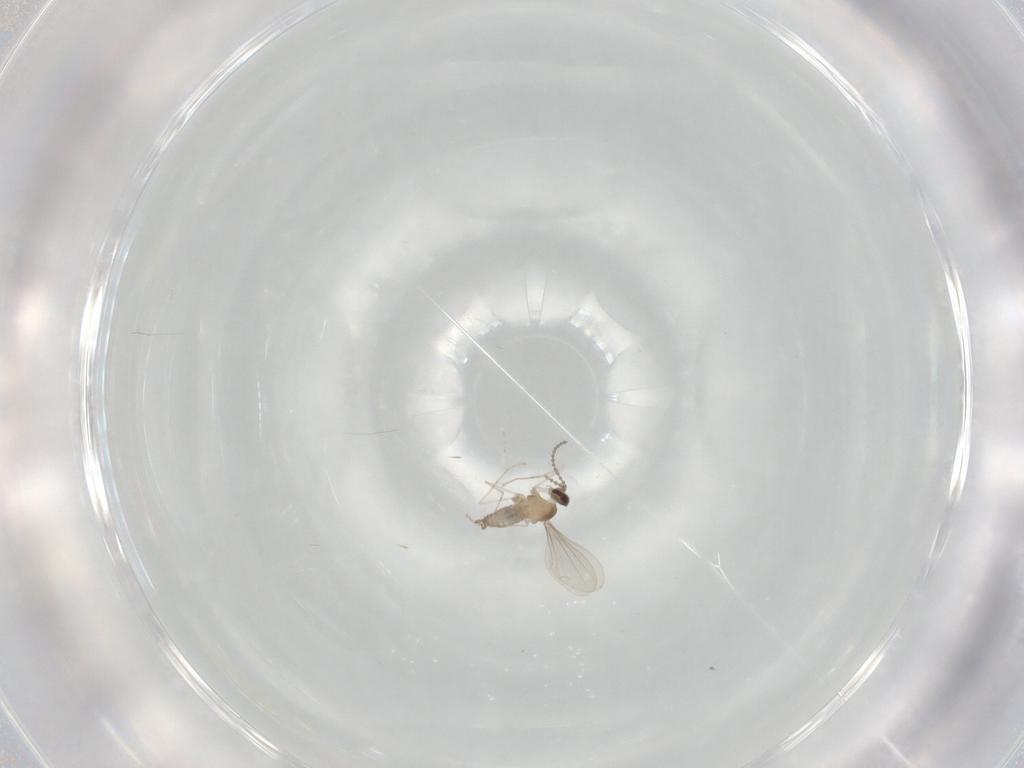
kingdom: Animalia
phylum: Arthropoda
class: Insecta
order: Diptera
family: Cecidomyiidae
